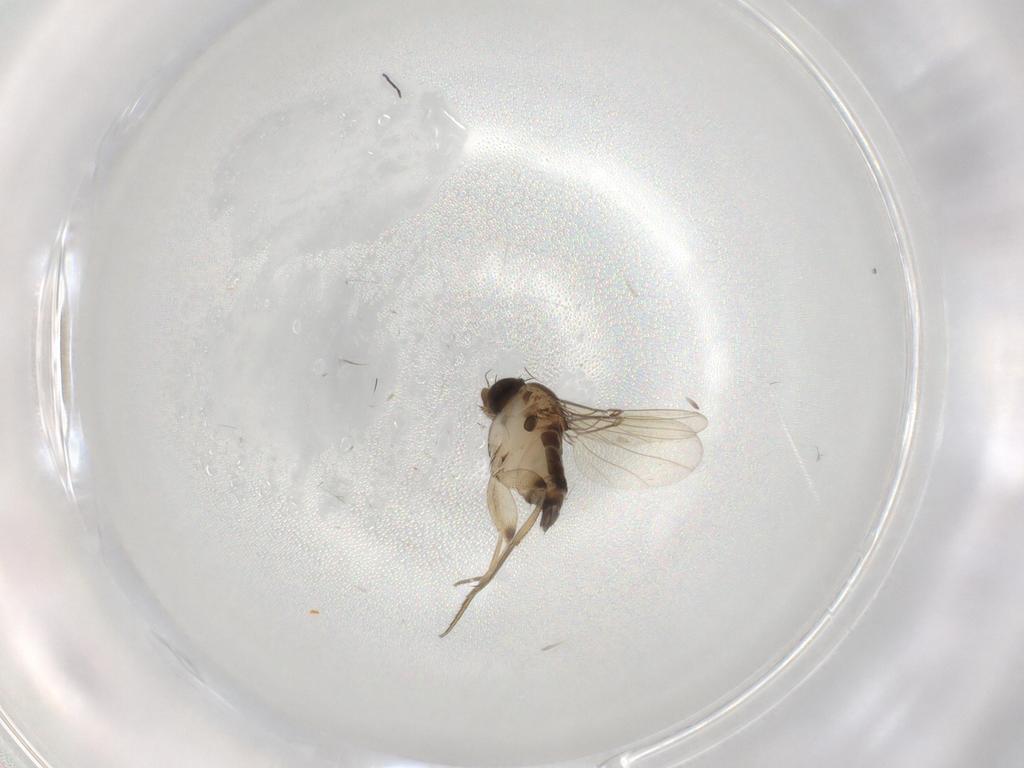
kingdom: Animalia
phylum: Arthropoda
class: Insecta
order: Diptera
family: Phoridae
